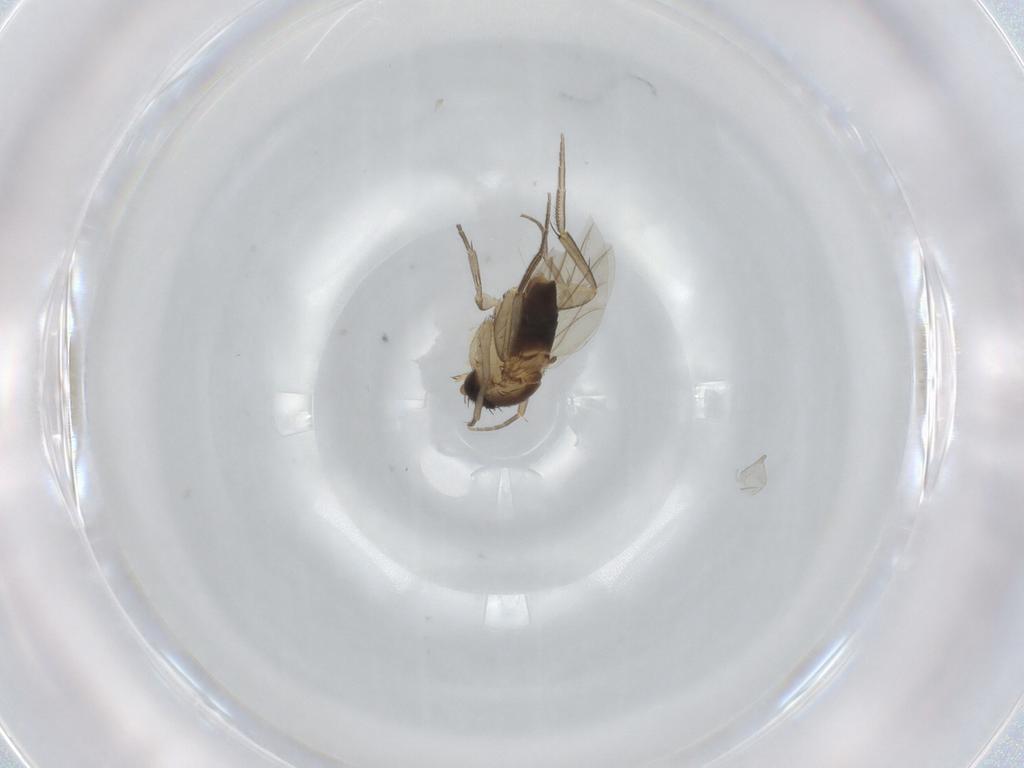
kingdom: Animalia
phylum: Arthropoda
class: Insecta
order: Diptera
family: Phoridae
